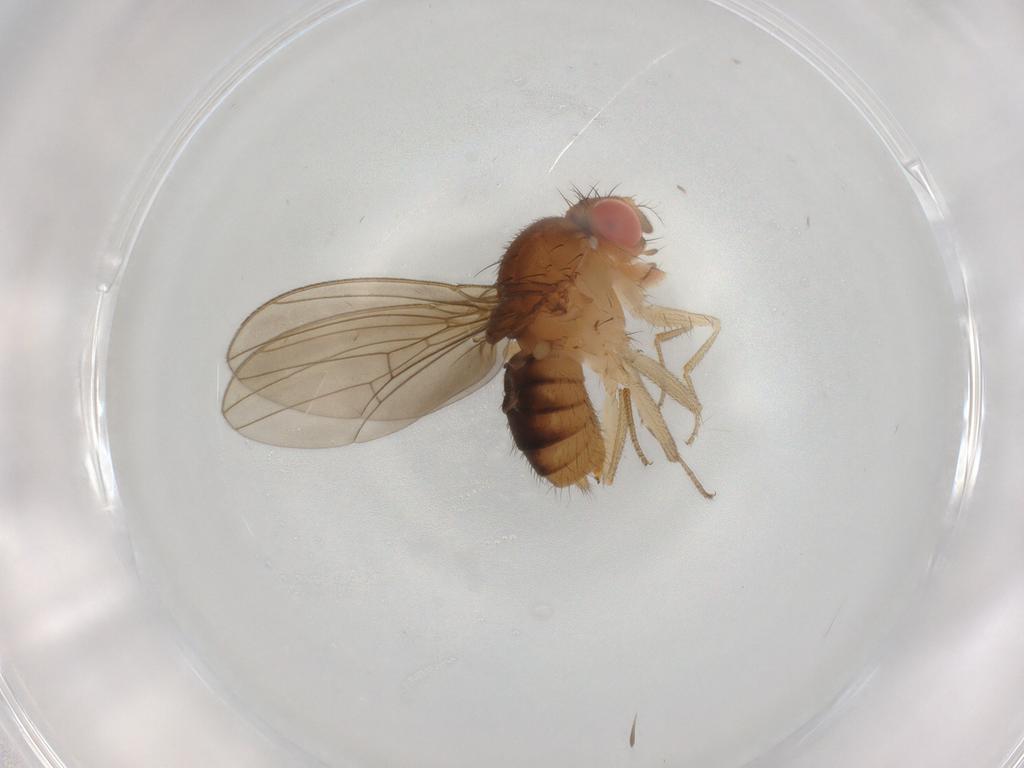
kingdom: Animalia
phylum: Arthropoda
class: Insecta
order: Diptera
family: Drosophilidae
